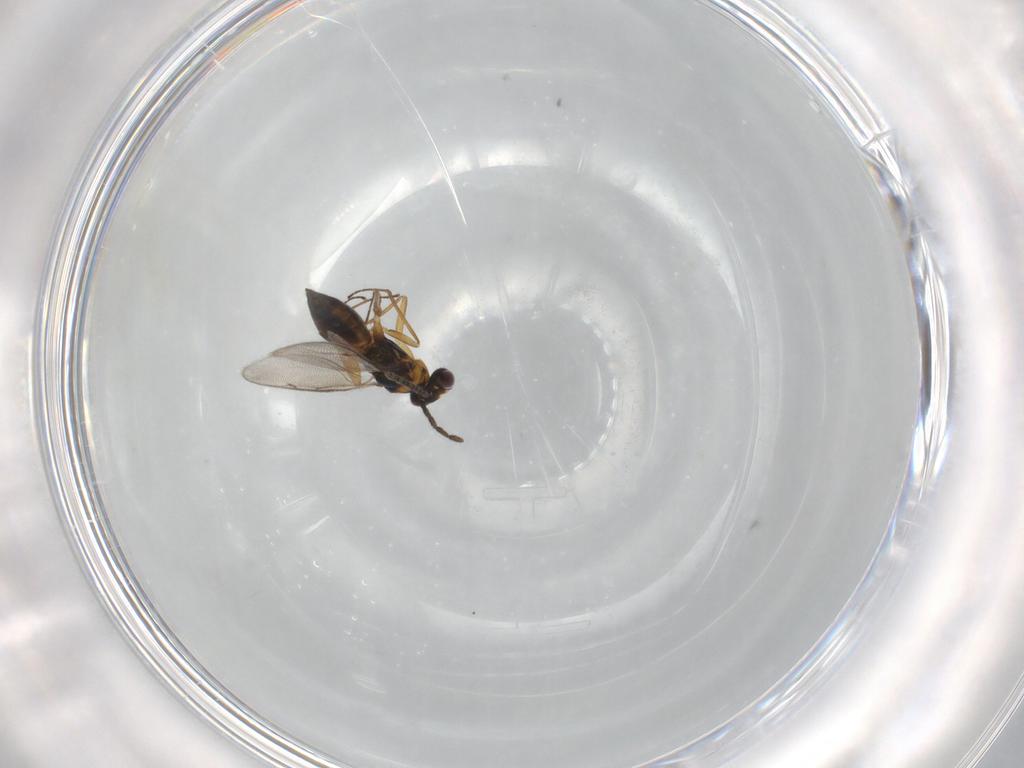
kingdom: Animalia
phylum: Arthropoda
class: Insecta
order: Hymenoptera
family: Eulophidae
